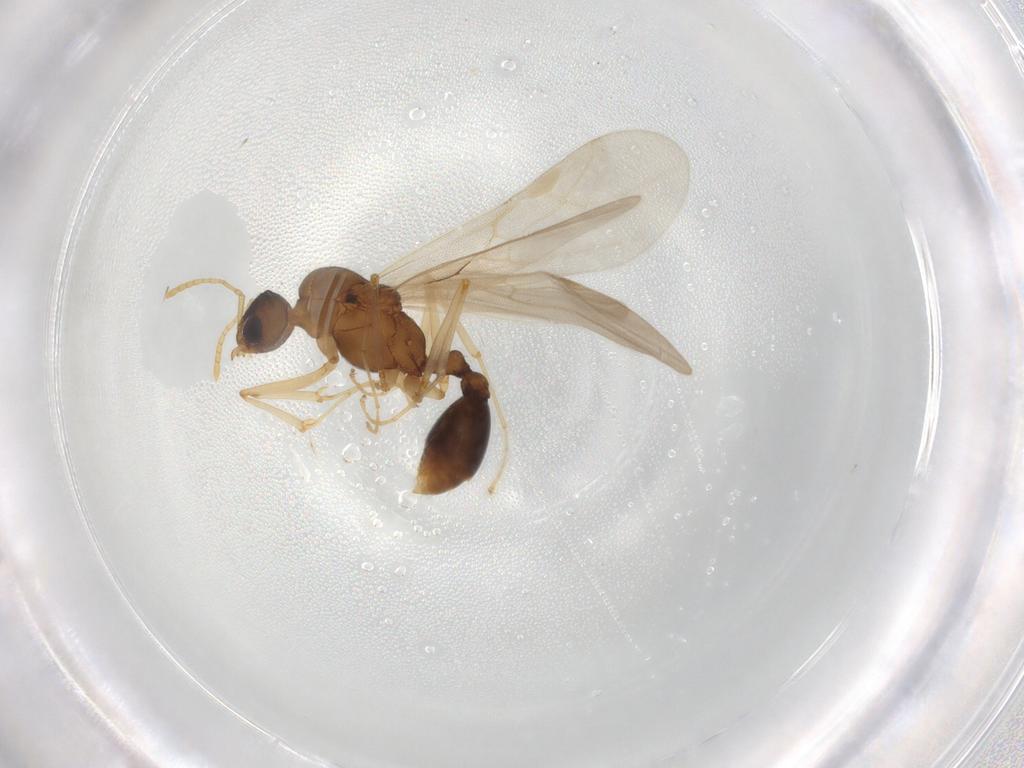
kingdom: Animalia
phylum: Arthropoda
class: Insecta
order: Hymenoptera
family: Formicidae
